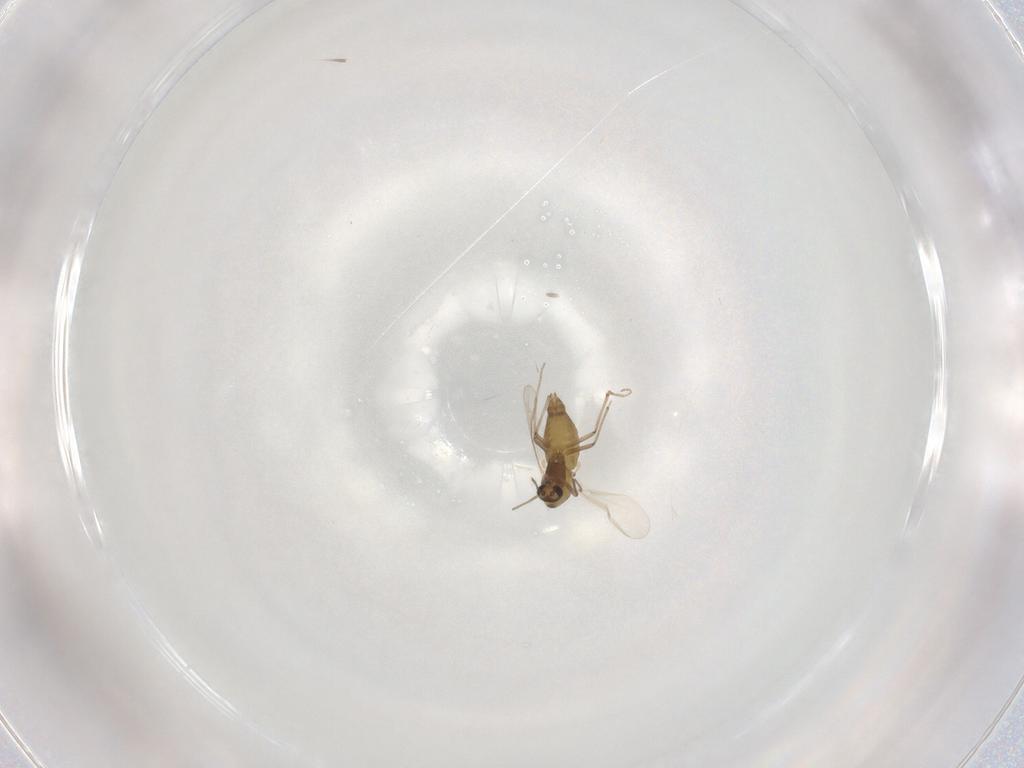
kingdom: Animalia
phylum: Arthropoda
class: Insecta
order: Diptera
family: Chironomidae
